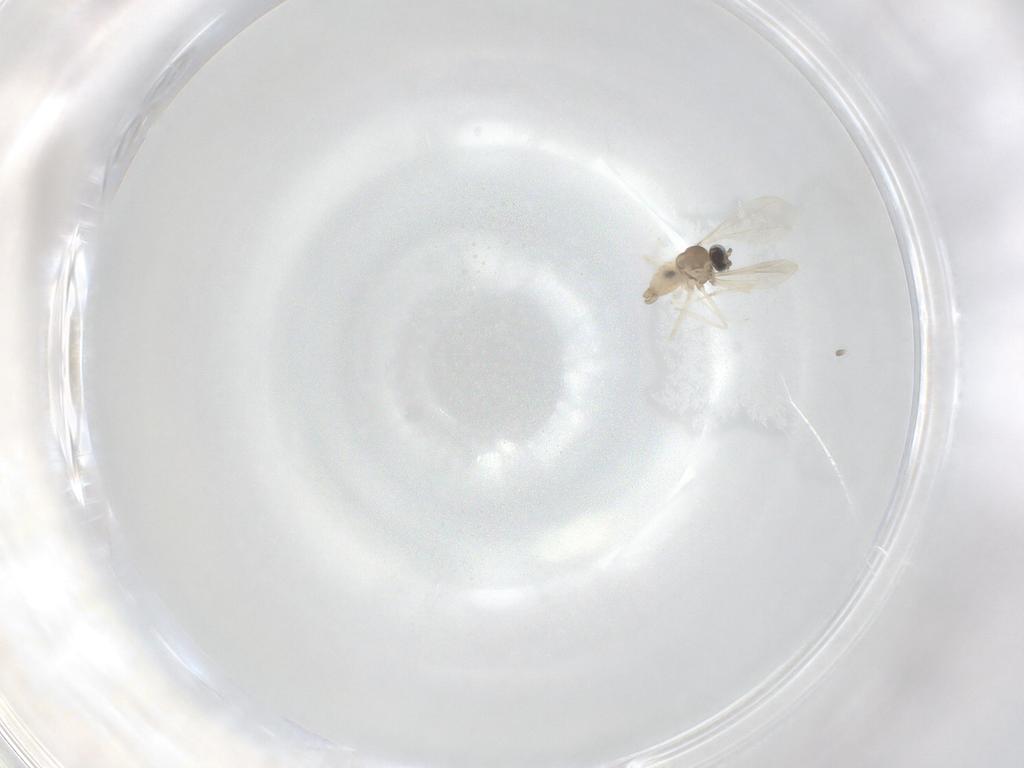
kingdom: Animalia
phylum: Arthropoda
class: Insecta
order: Diptera
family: Cecidomyiidae
